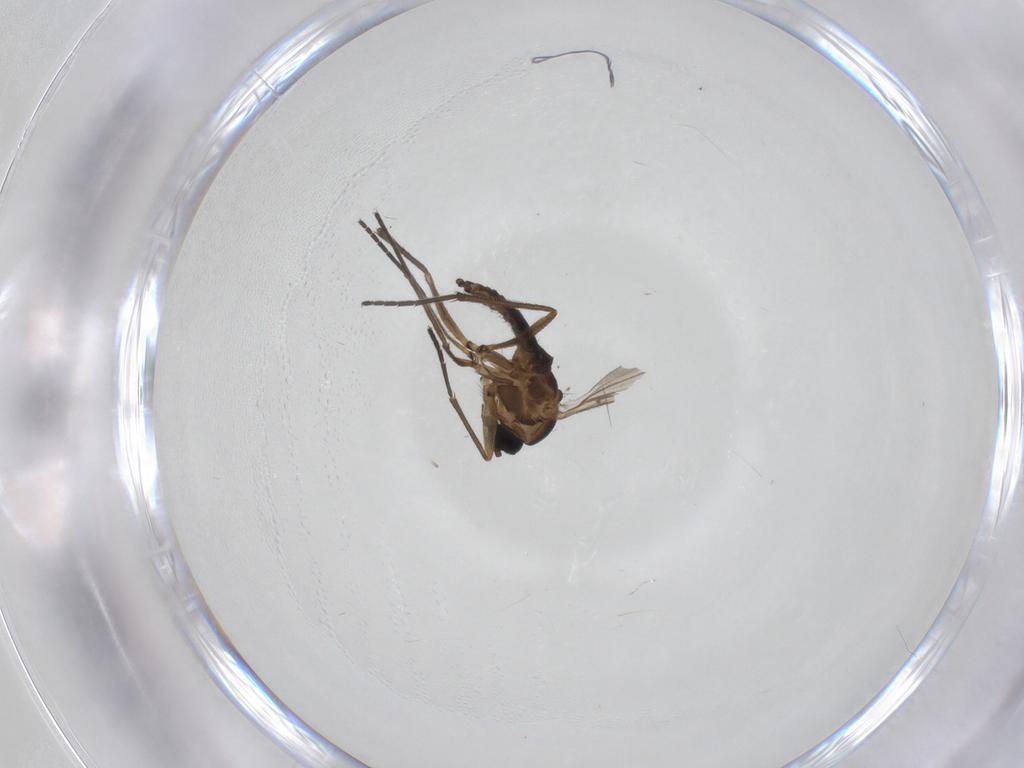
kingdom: Animalia
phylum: Arthropoda
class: Insecta
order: Diptera
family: Sciaridae
